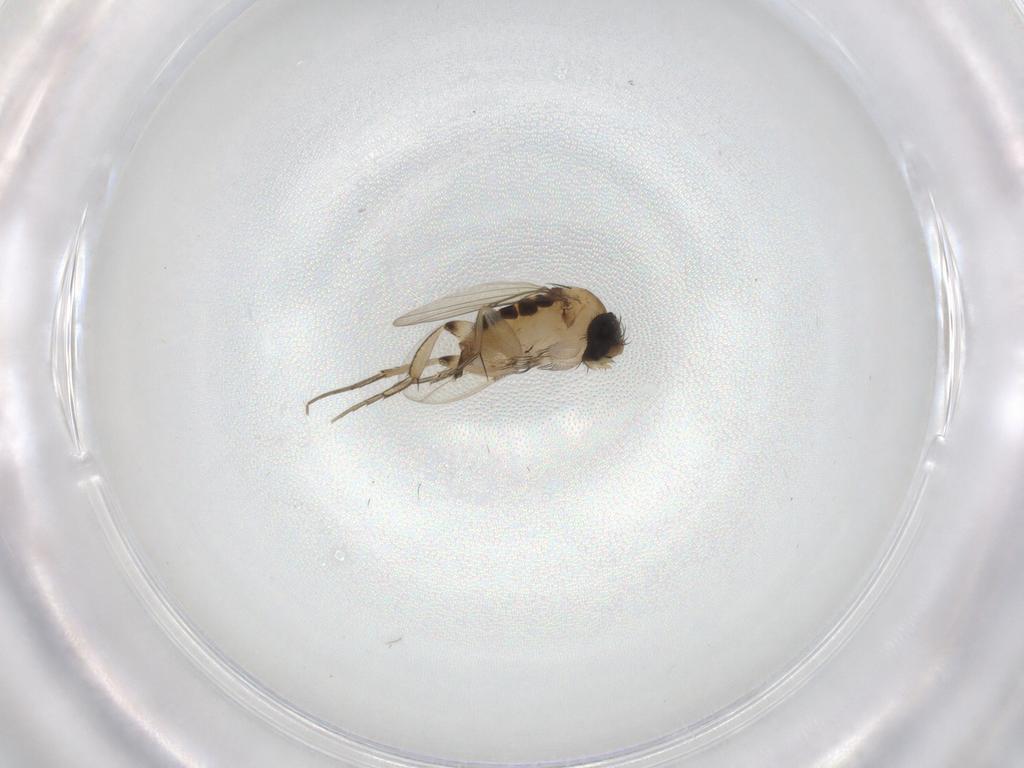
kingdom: Animalia
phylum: Arthropoda
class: Insecta
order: Diptera
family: Phoridae
